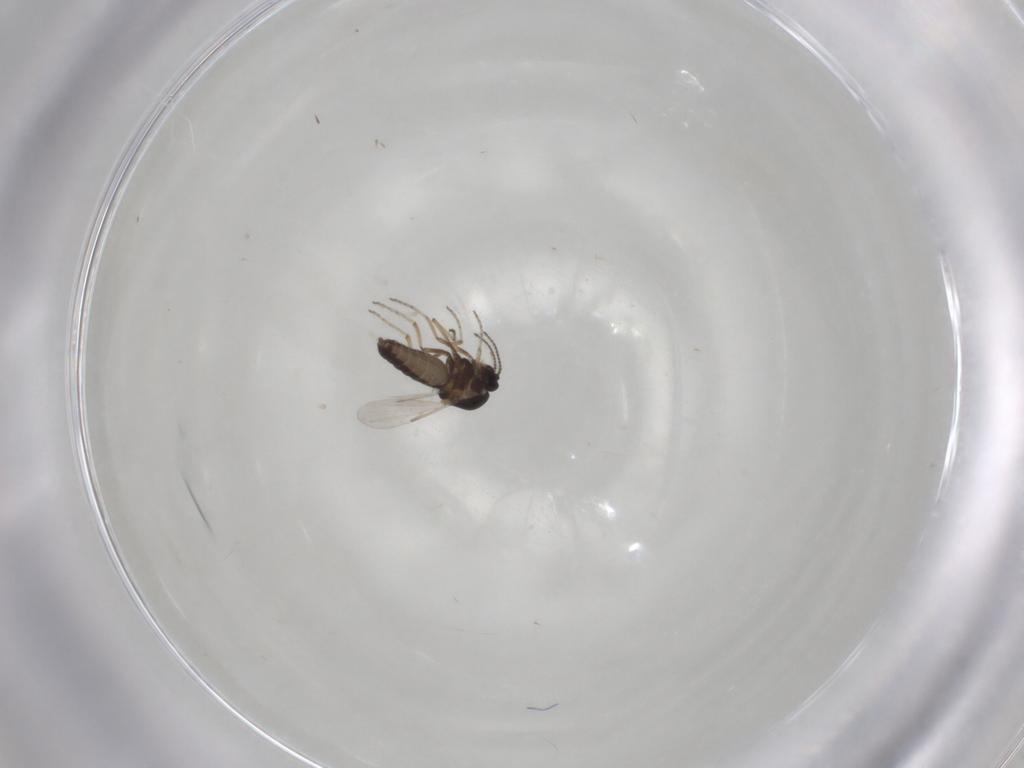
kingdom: Animalia
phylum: Arthropoda
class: Insecta
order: Diptera
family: Ceratopogonidae
